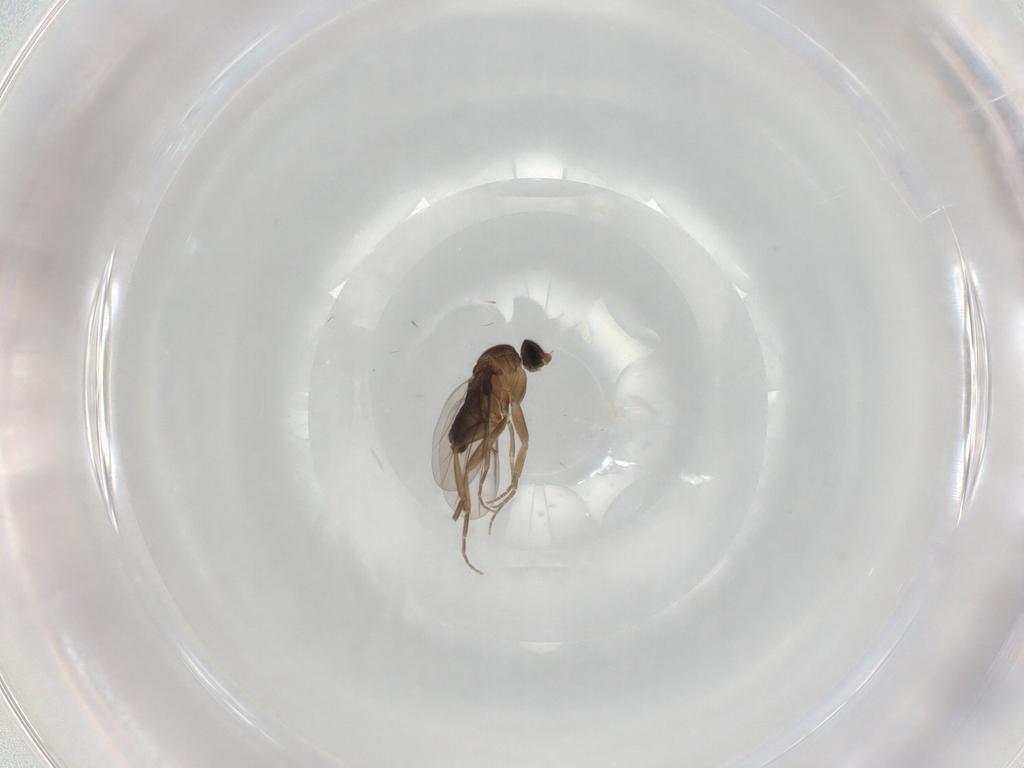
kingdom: Animalia
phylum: Arthropoda
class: Insecta
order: Diptera
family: Phoridae
